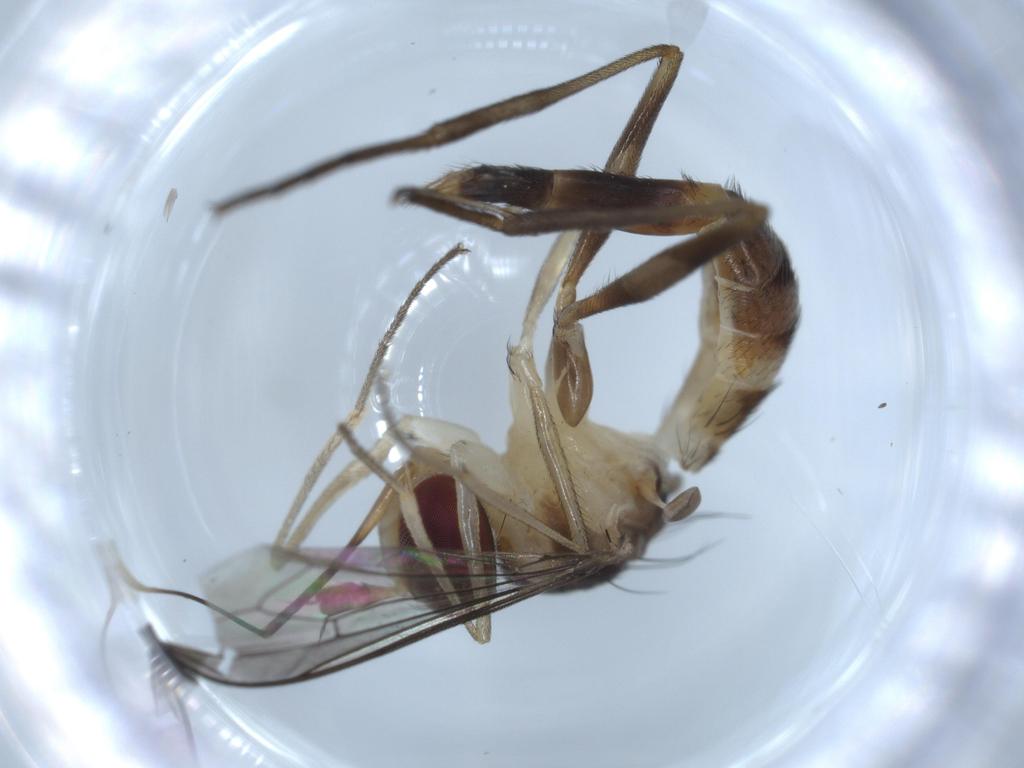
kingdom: Animalia
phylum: Arthropoda
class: Insecta
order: Diptera
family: Conopidae
